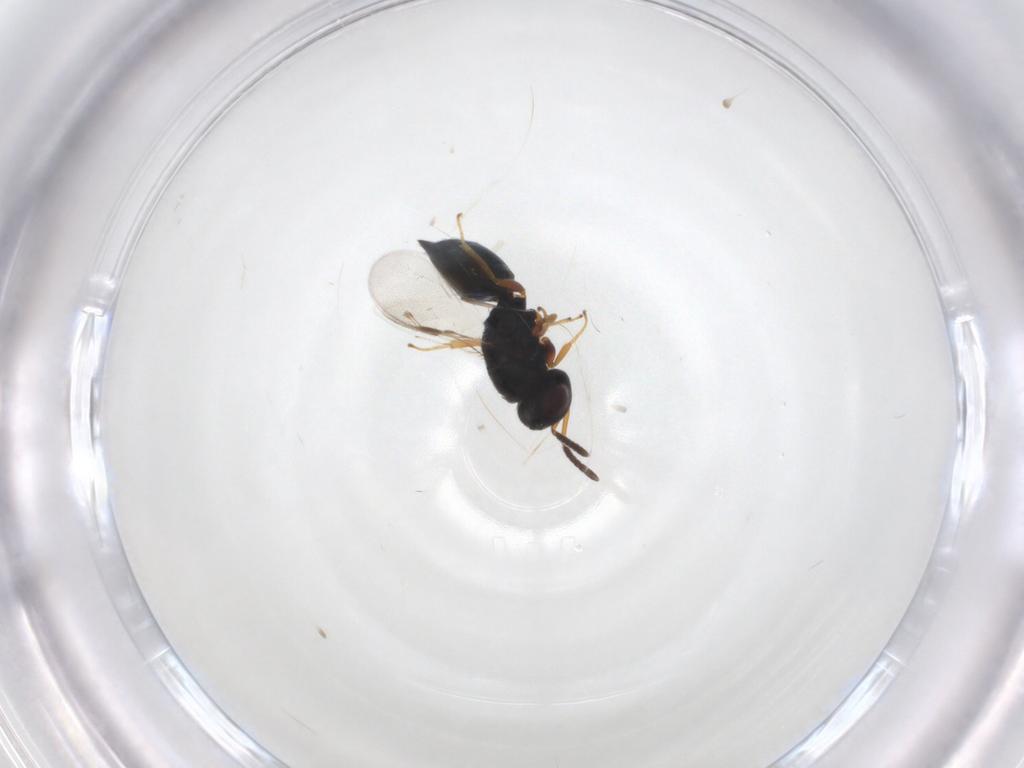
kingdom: Animalia
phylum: Arthropoda
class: Insecta
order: Hymenoptera
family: Pteromalidae
